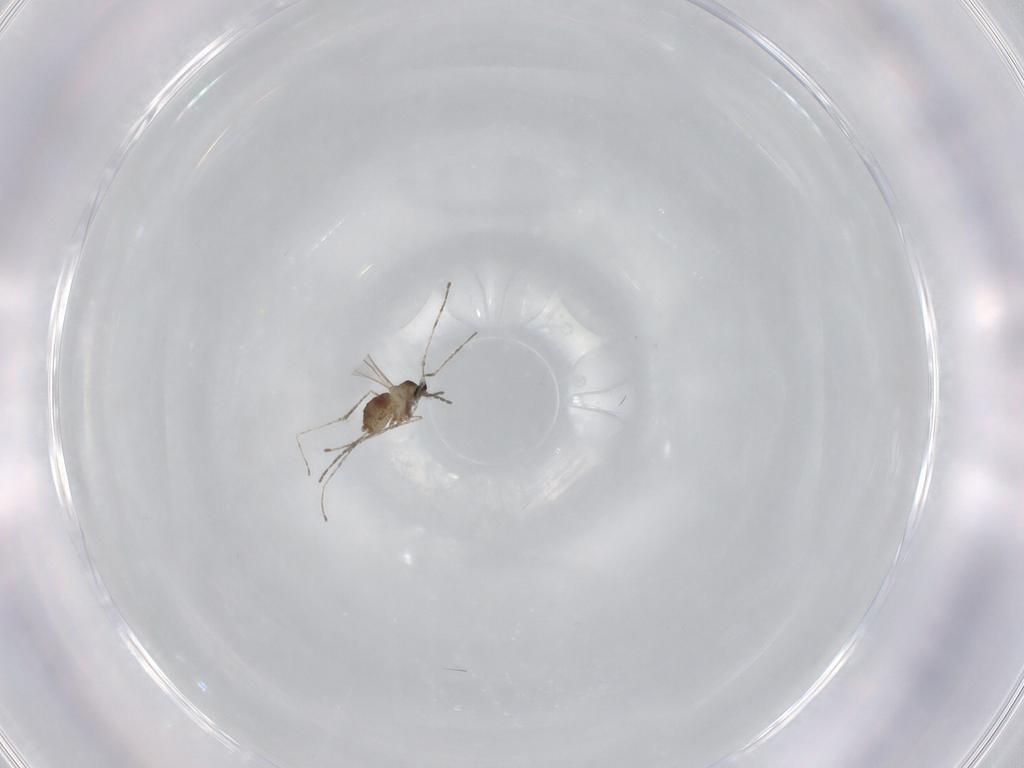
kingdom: Animalia
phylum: Arthropoda
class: Insecta
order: Diptera
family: Cecidomyiidae
